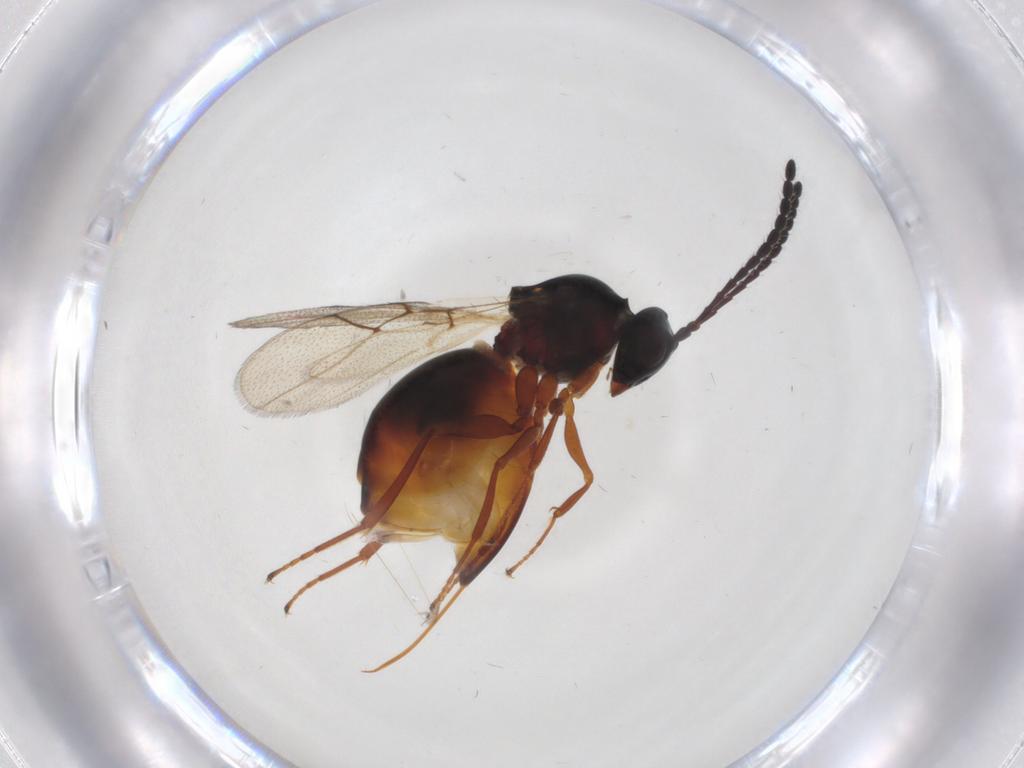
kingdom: Animalia
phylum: Arthropoda
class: Insecta
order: Hymenoptera
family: Figitidae
